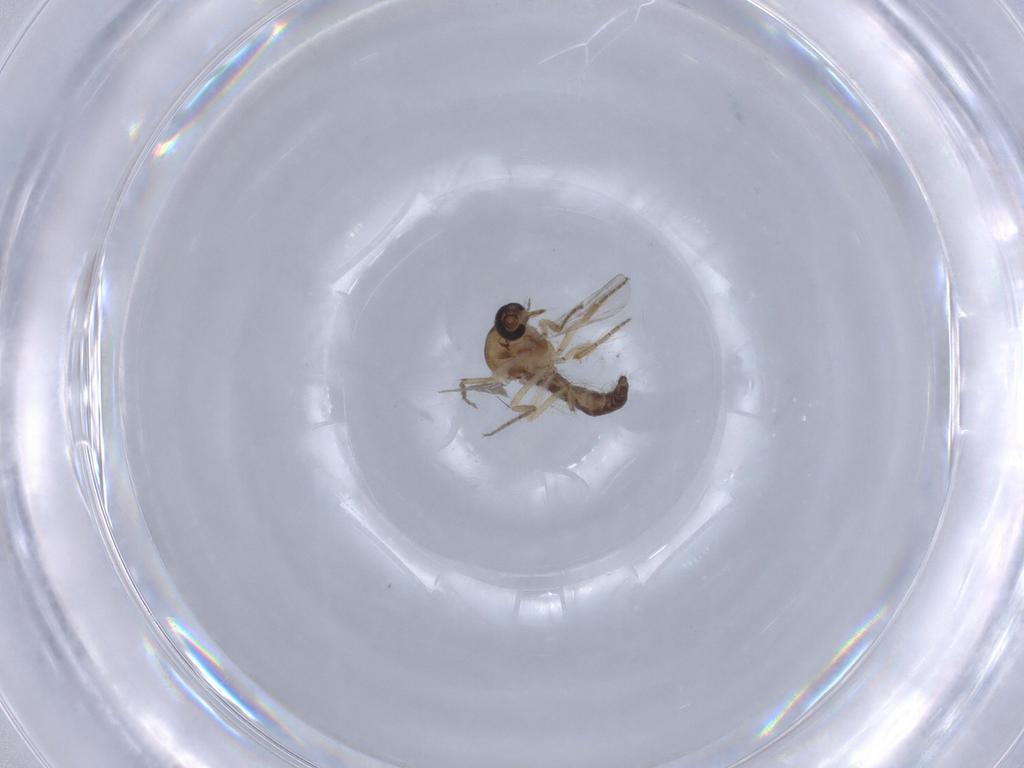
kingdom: Animalia
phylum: Arthropoda
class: Insecta
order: Diptera
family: Ceratopogonidae
